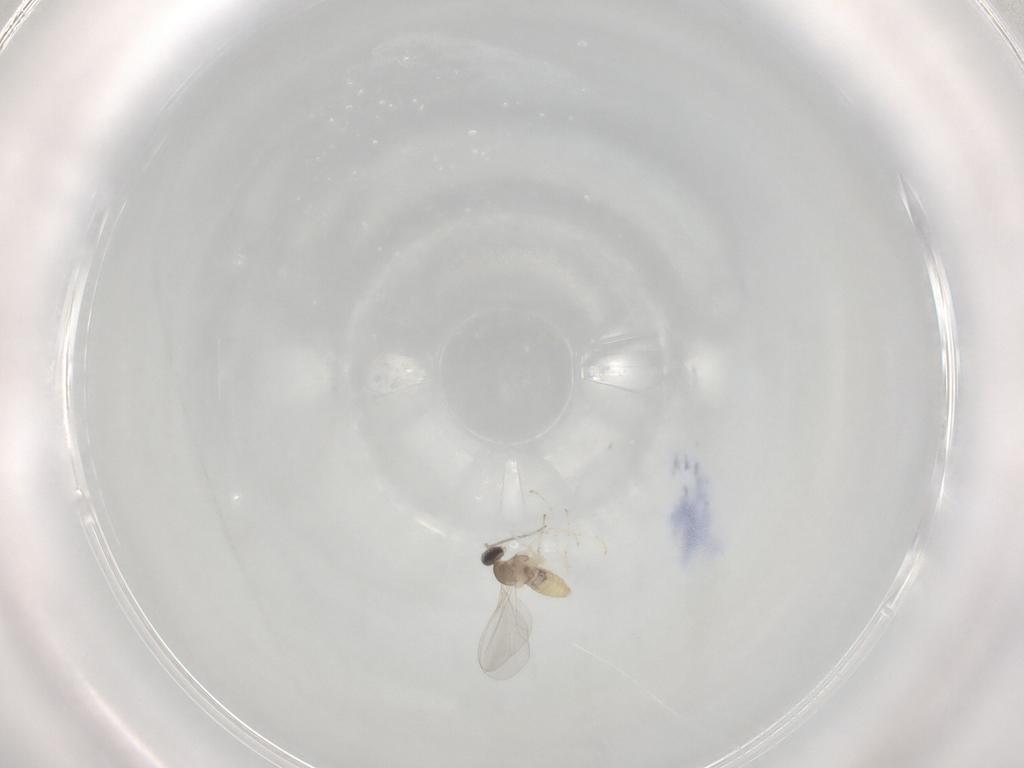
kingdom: Animalia
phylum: Arthropoda
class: Insecta
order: Diptera
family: Cecidomyiidae
